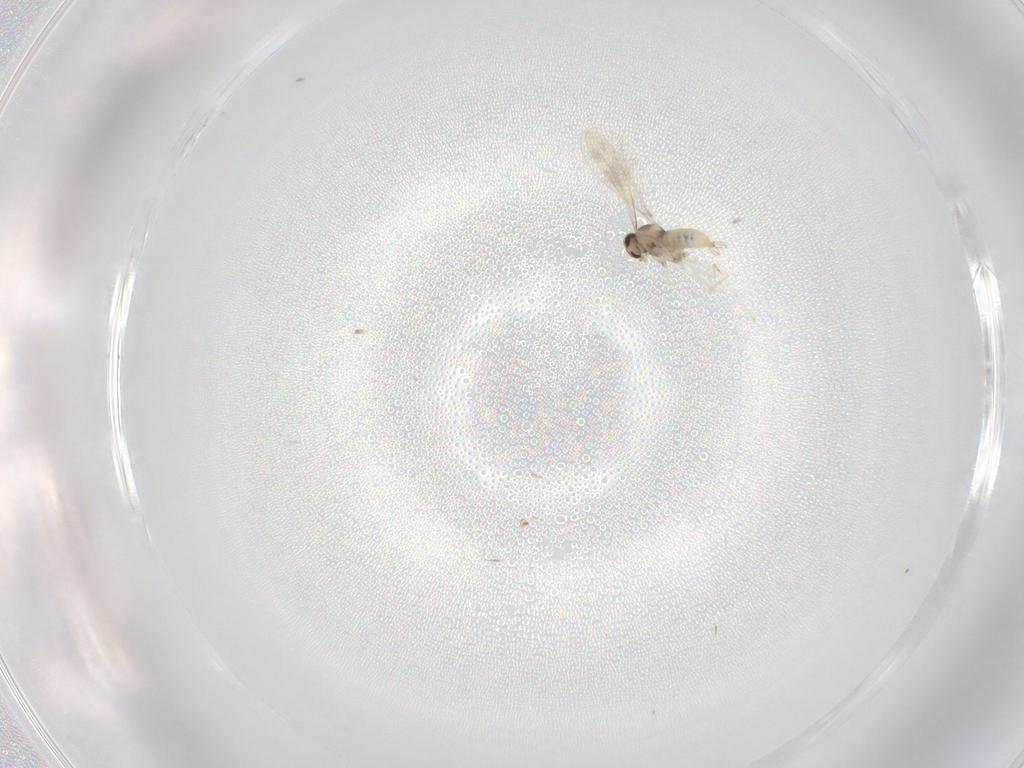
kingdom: Animalia
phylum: Arthropoda
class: Insecta
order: Diptera
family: Cecidomyiidae
